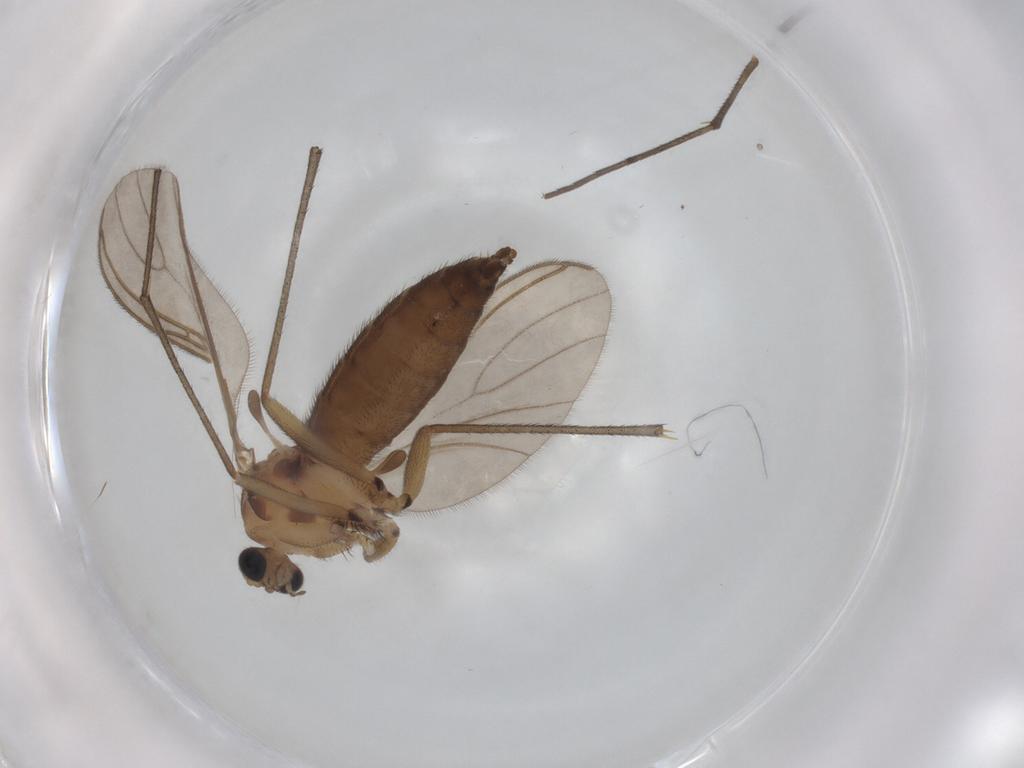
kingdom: Animalia
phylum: Arthropoda
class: Insecta
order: Diptera
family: Sciaridae
